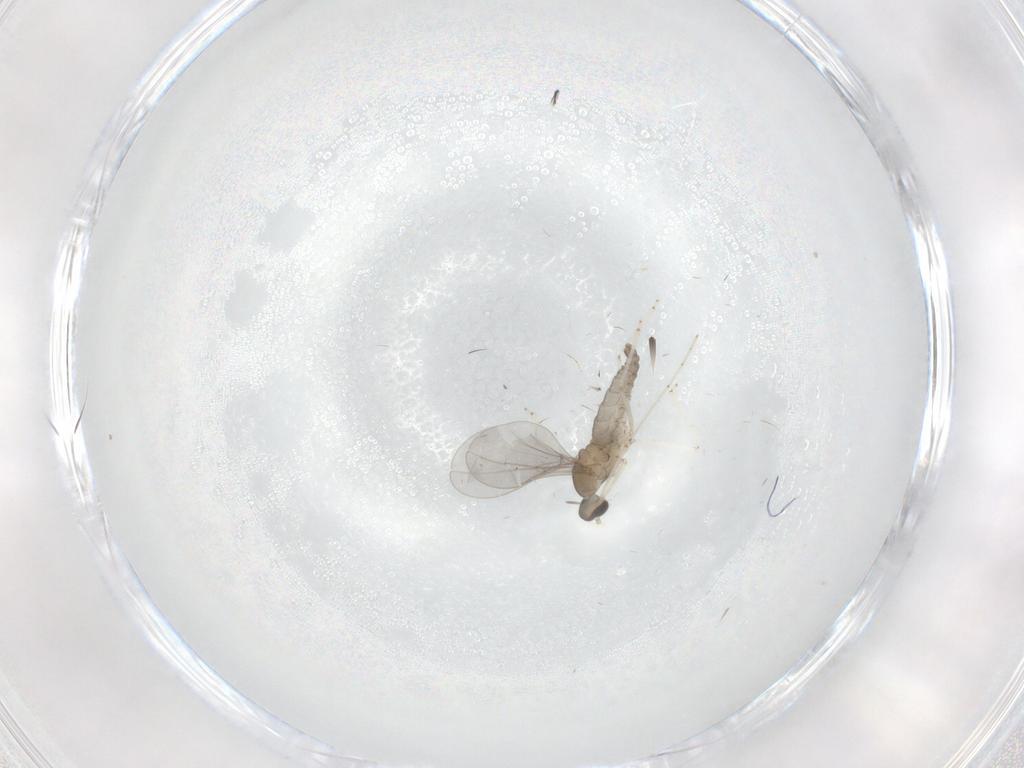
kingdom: Animalia
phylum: Arthropoda
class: Insecta
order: Diptera
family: Cecidomyiidae
